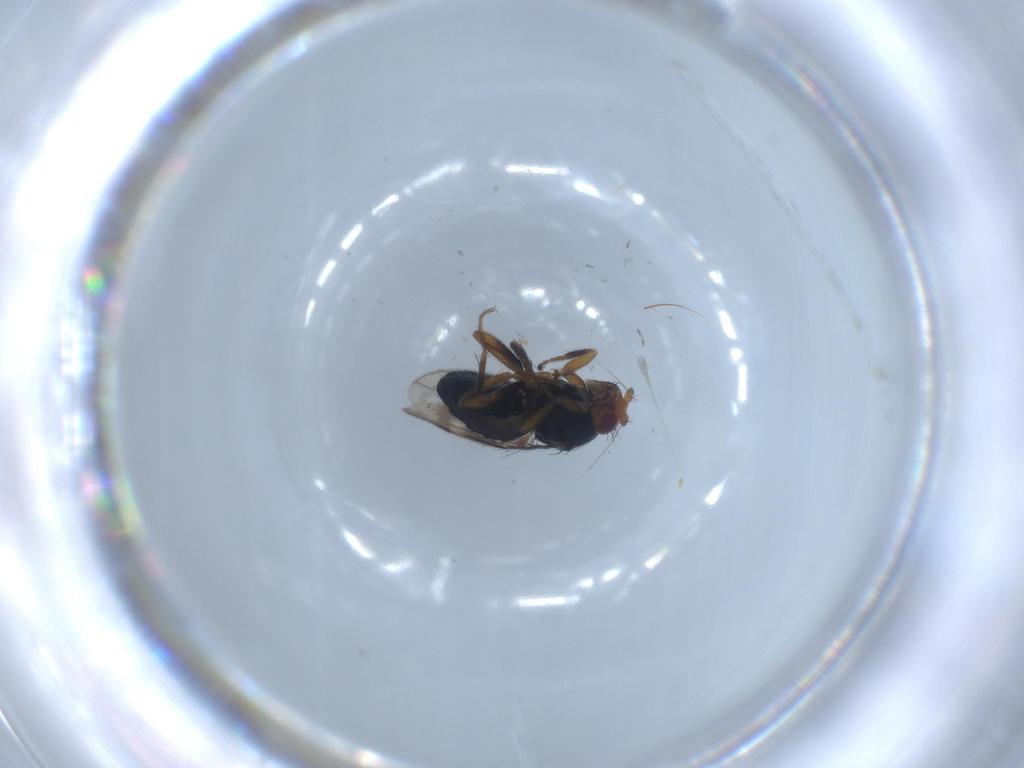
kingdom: Animalia
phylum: Arthropoda
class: Insecta
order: Diptera
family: Sphaeroceridae
